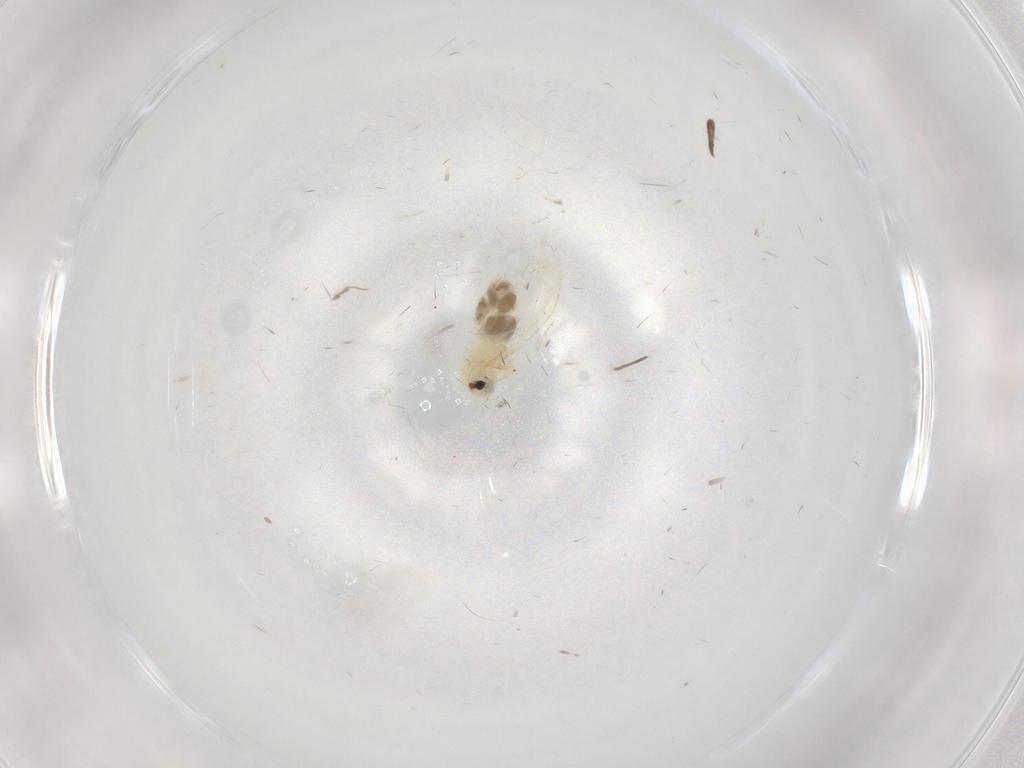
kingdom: Animalia
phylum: Arthropoda
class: Insecta
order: Hemiptera
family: Aleyrodidae
